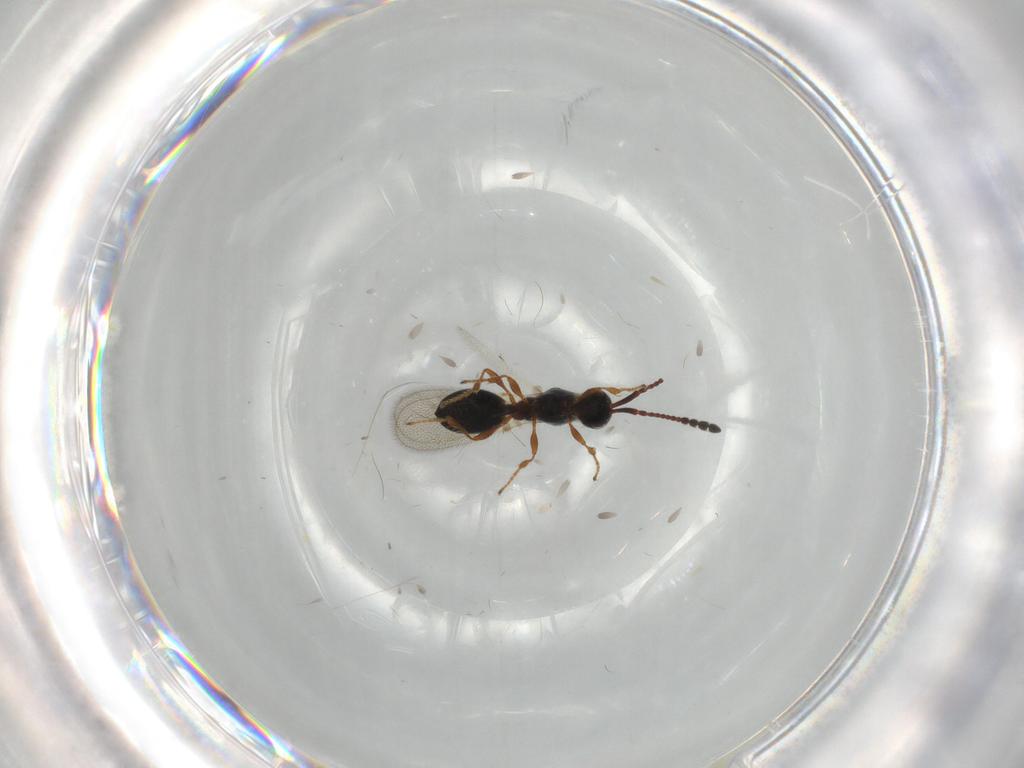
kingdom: Animalia
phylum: Arthropoda
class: Insecta
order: Hymenoptera
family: Diapriidae
